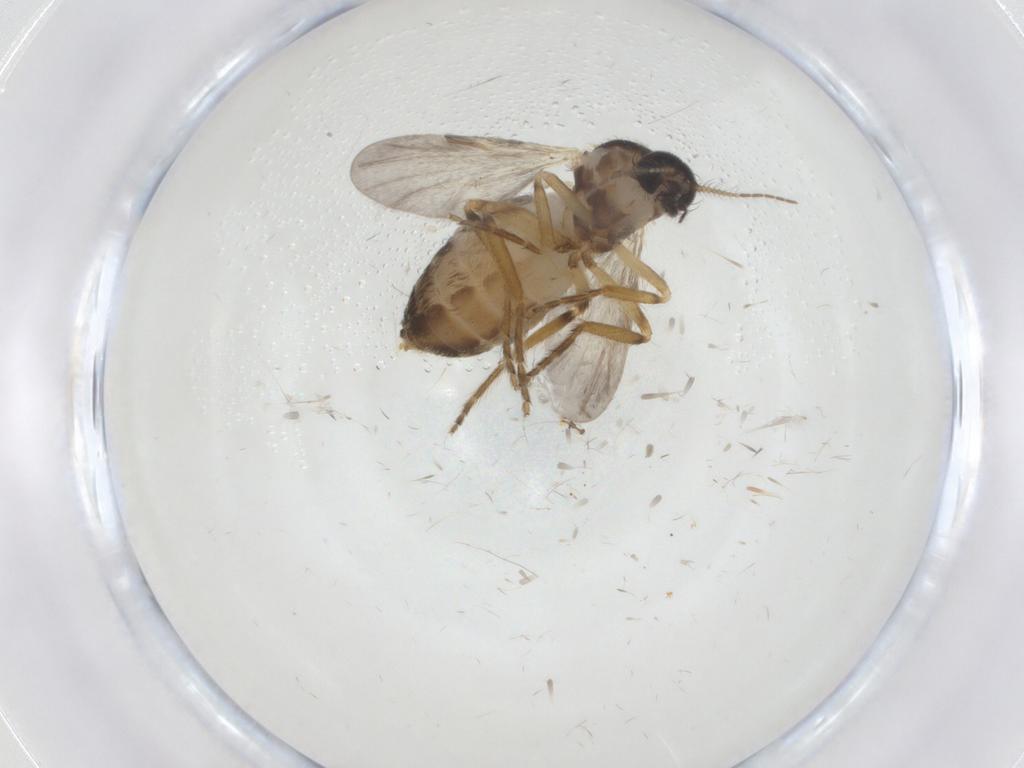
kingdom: Animalia
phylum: Arthropoda
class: Insecta
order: Diptera
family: Ceratopogonidae
